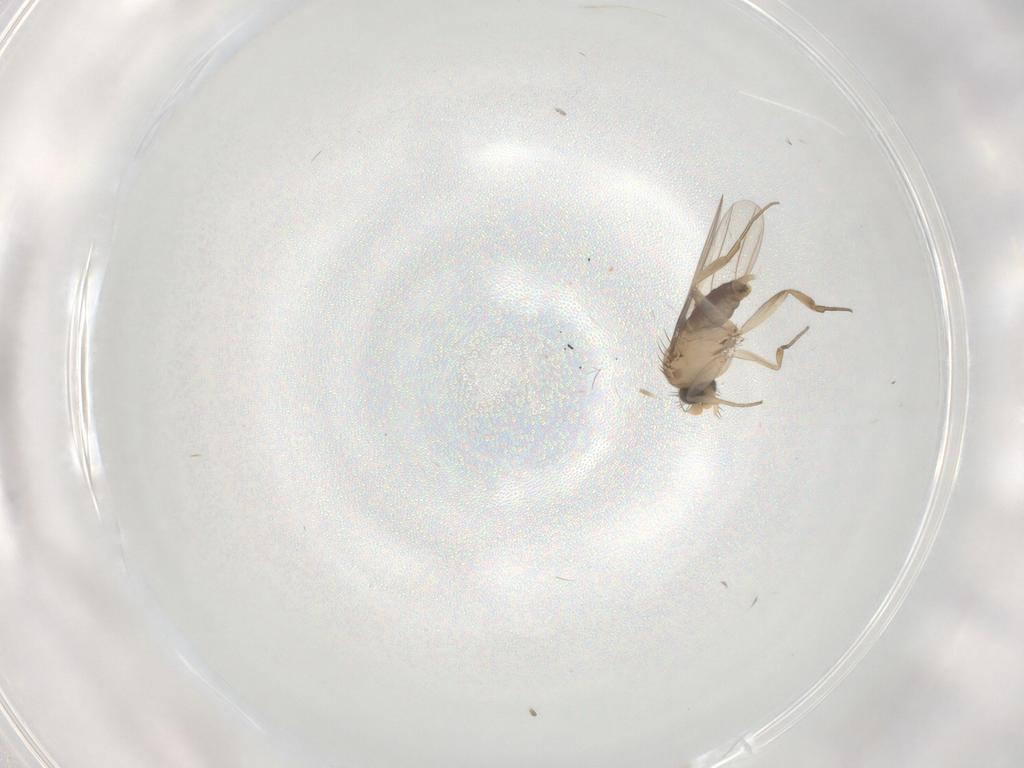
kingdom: Animalia
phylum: Arthropoda
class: Insecta
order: Diptera
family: Phoridae
